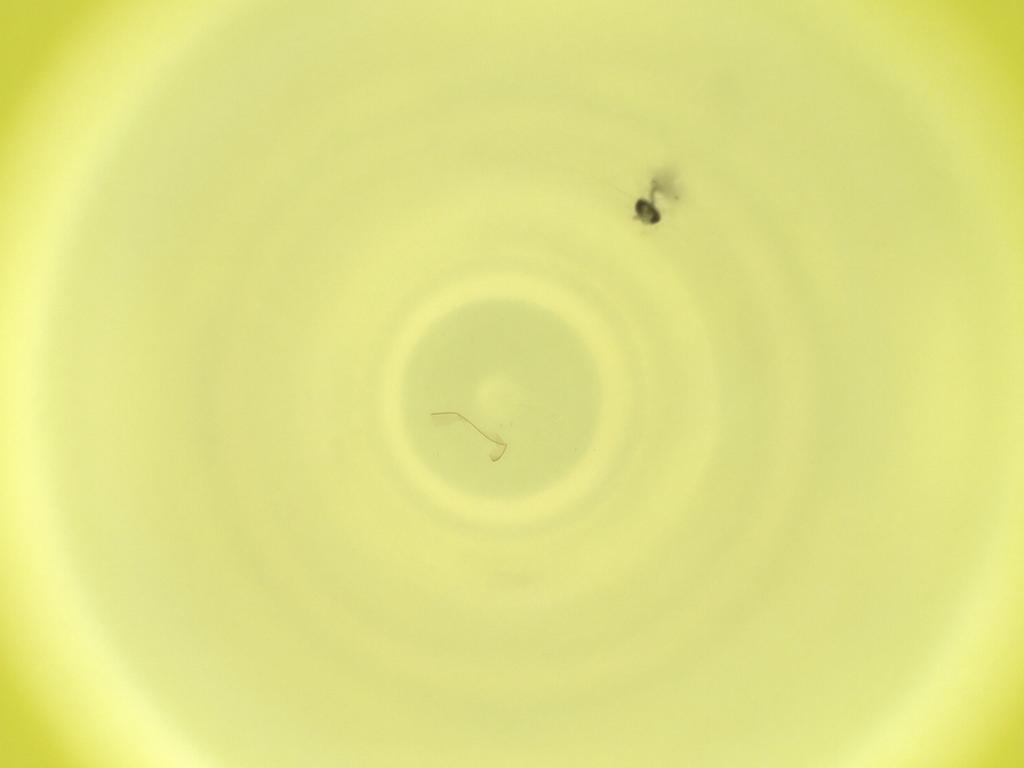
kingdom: Animalia
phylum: Arthropoda
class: Insecta
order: Diptera
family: Cecidomyiidae
